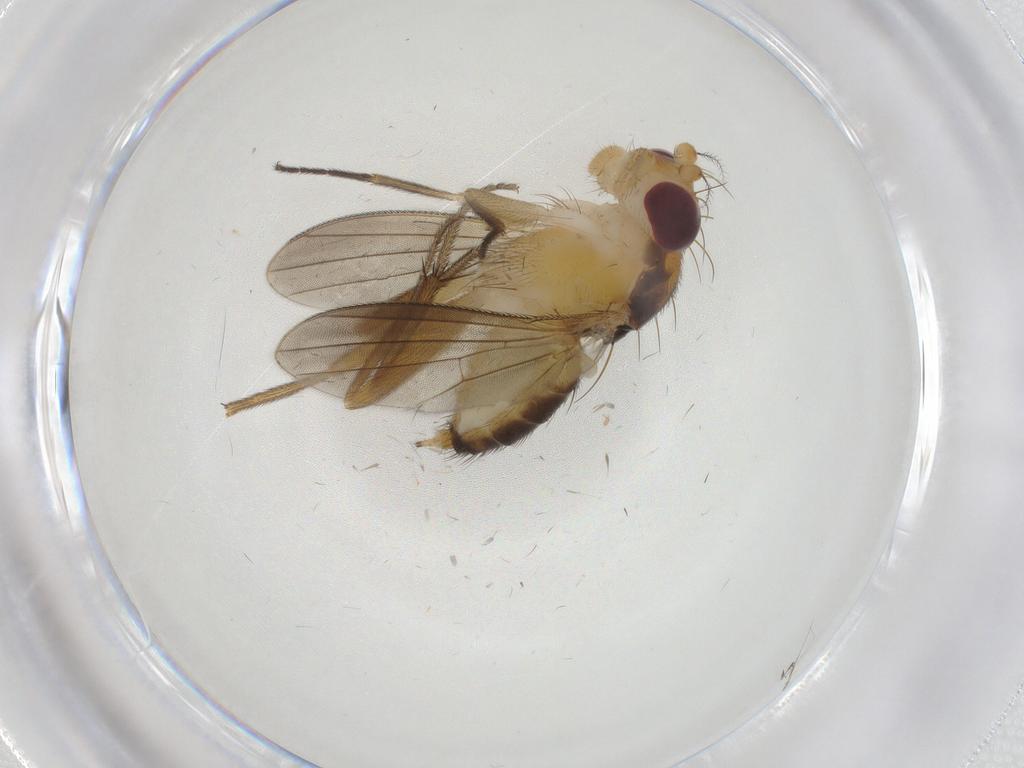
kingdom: Animalia
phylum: Arthropoda
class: Insecta
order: Diptera
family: Clusiidae
